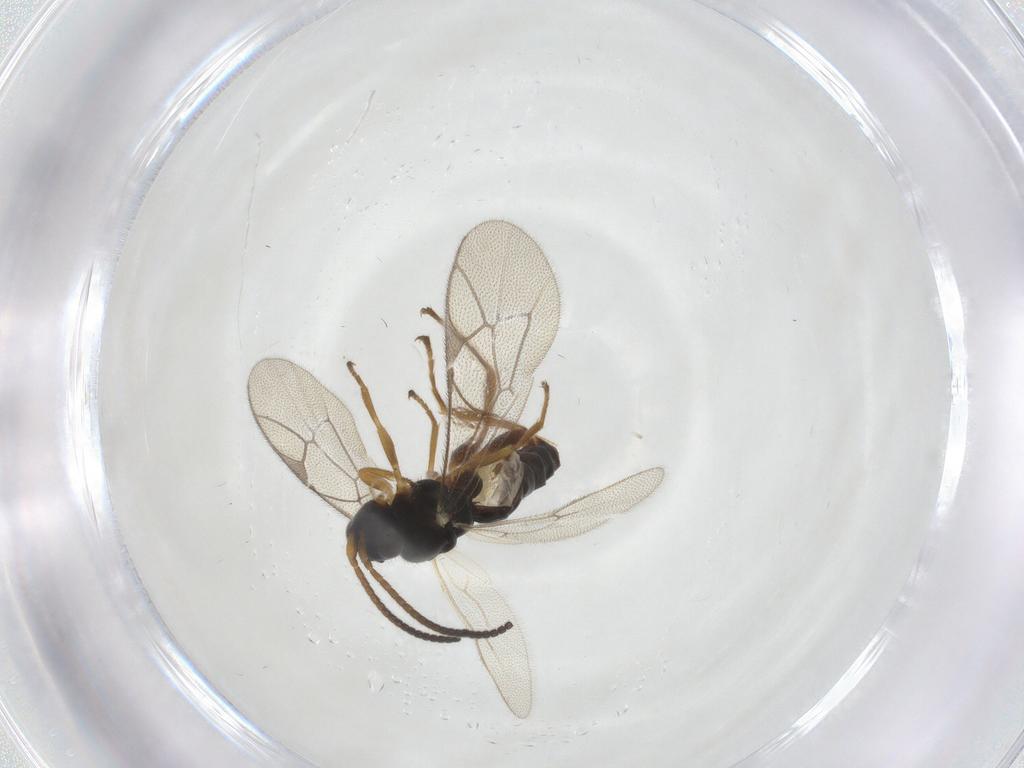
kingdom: Animalia
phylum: Arthropoda
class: Insecta
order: Hymenoptera
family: Ichneumonidae
